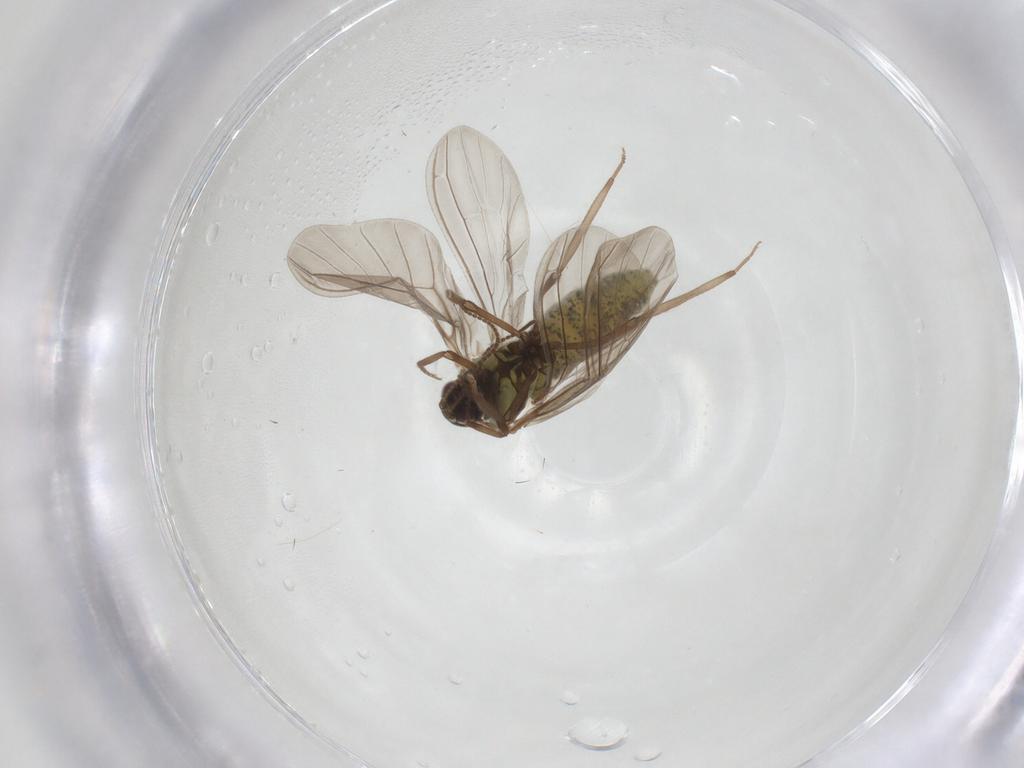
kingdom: Animalia
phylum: Arthropoda
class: Insecta
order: Neuroptera
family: Coniopterygidae
